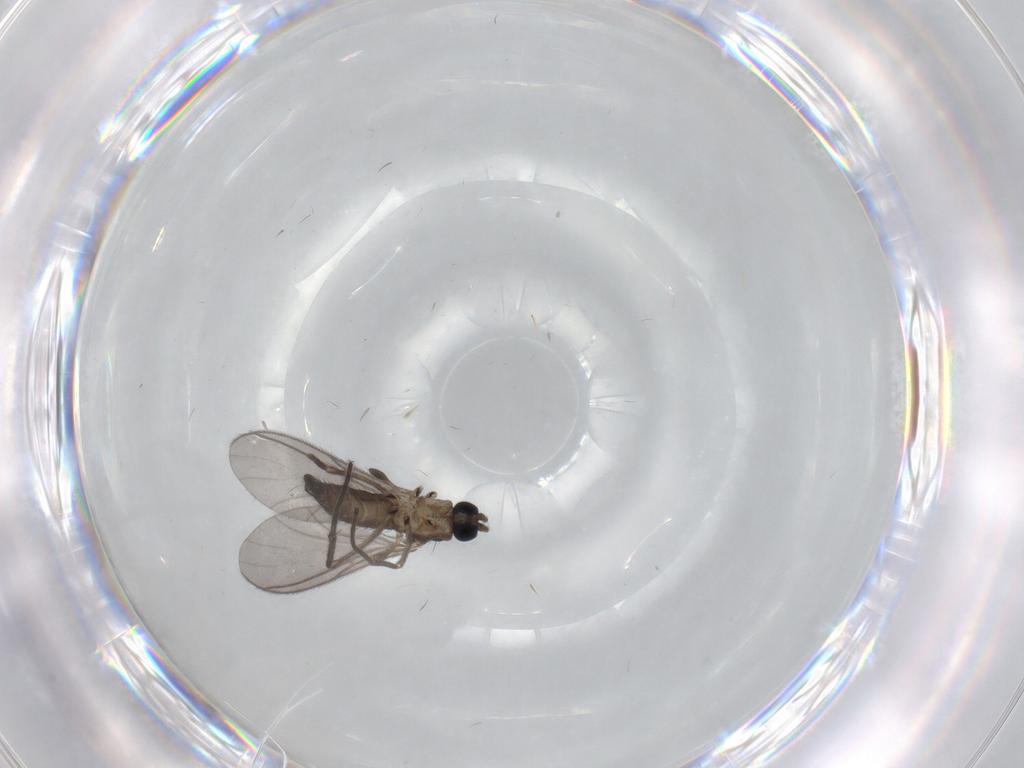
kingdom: Animalia
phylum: Arthropoda
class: Insecta
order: Diptera
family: Sciaridae
